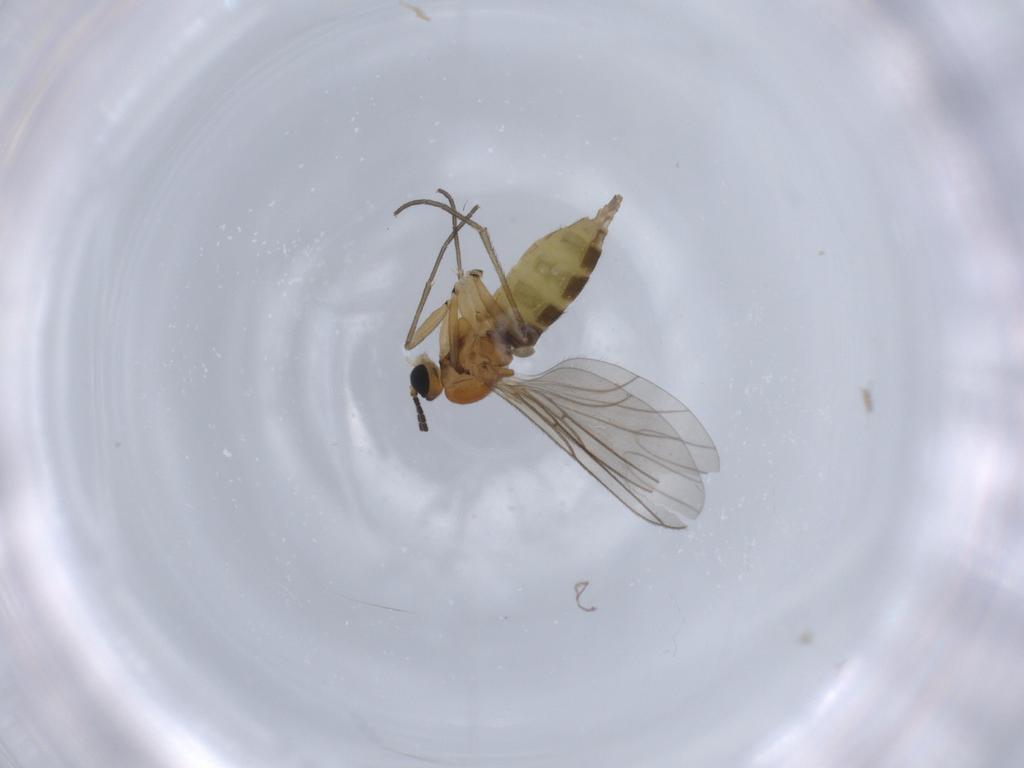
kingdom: Animalia
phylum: Arthropoda
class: Insecta
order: Diptera
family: Sciaridae
